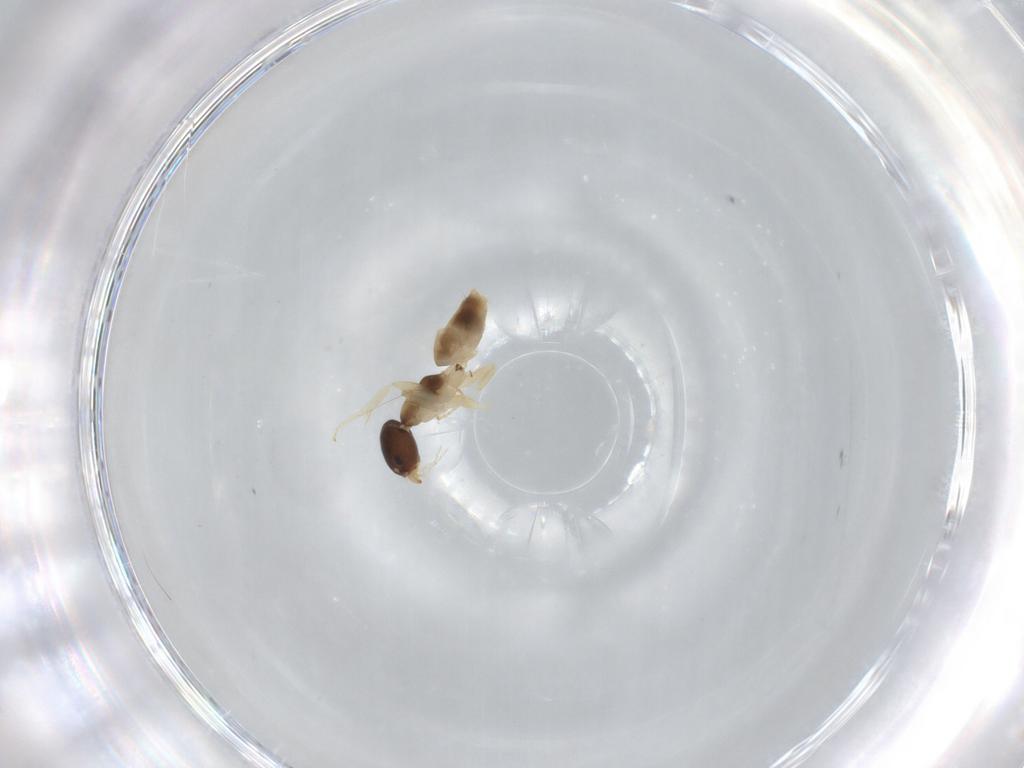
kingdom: Animalia
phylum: Arthropoda
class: Insecta
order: Hymenoptera
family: Formicidae
